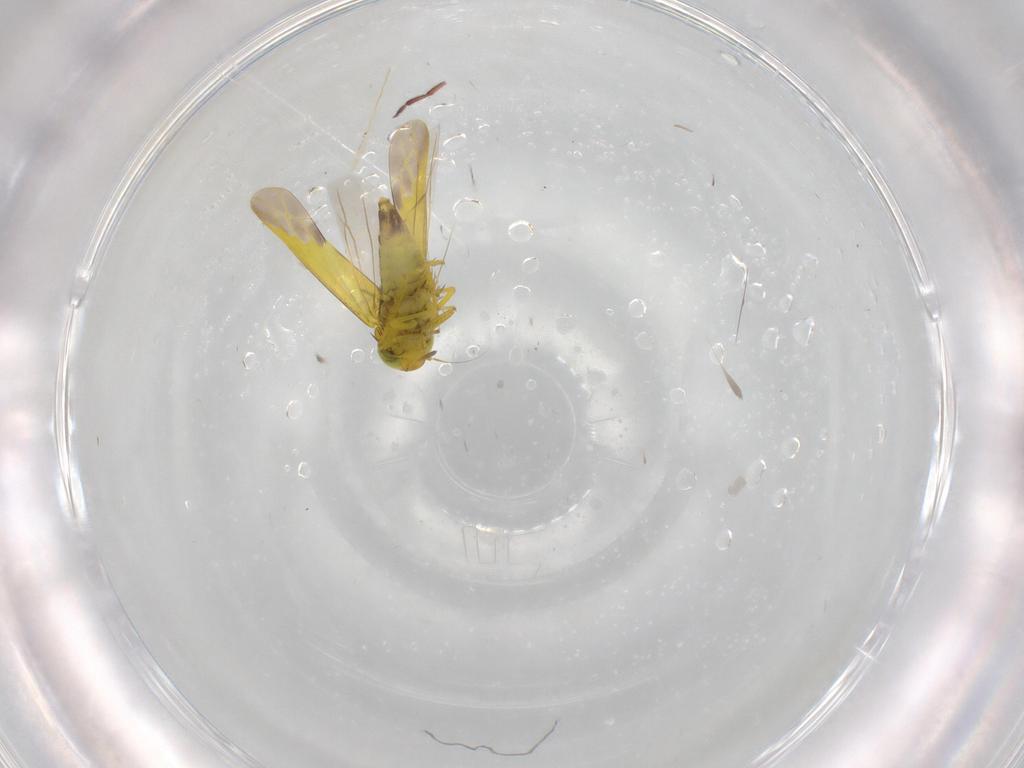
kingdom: Animalia
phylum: Arthropoda
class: Insecta
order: Hemiptera
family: Cicadellidae
